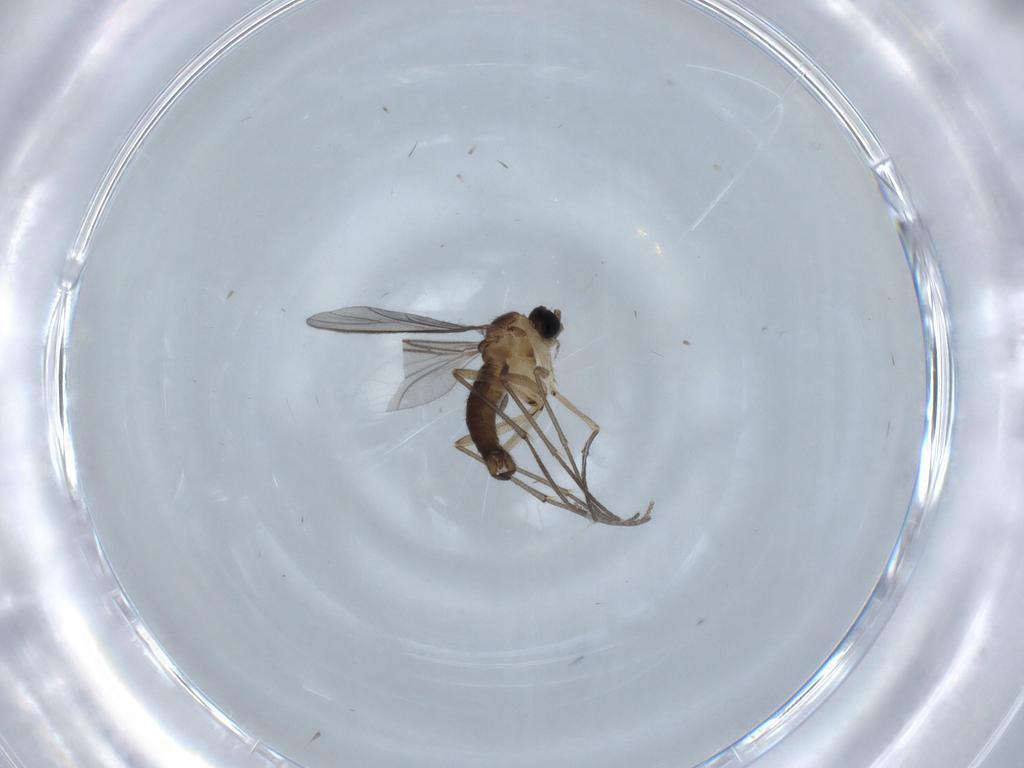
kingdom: Animalia
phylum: Arthropoda
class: Insecta
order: Diptera
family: Sciaridae
